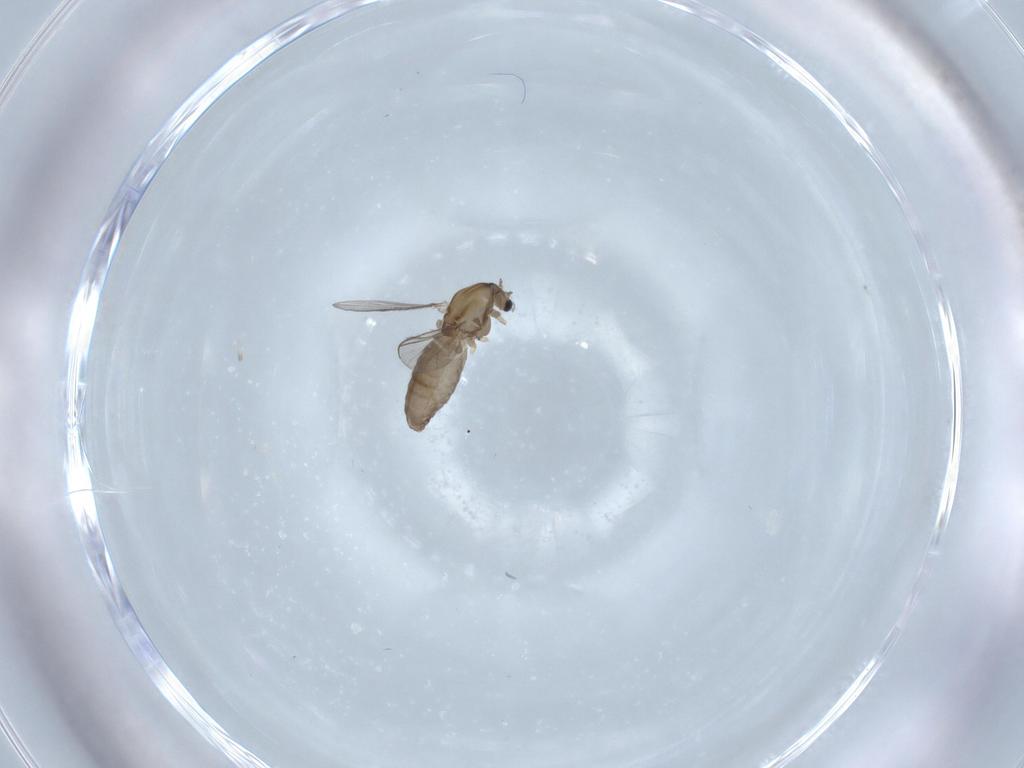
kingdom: Animalia
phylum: Arthropoda
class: Insecta
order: Diptera
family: Chironomidae
